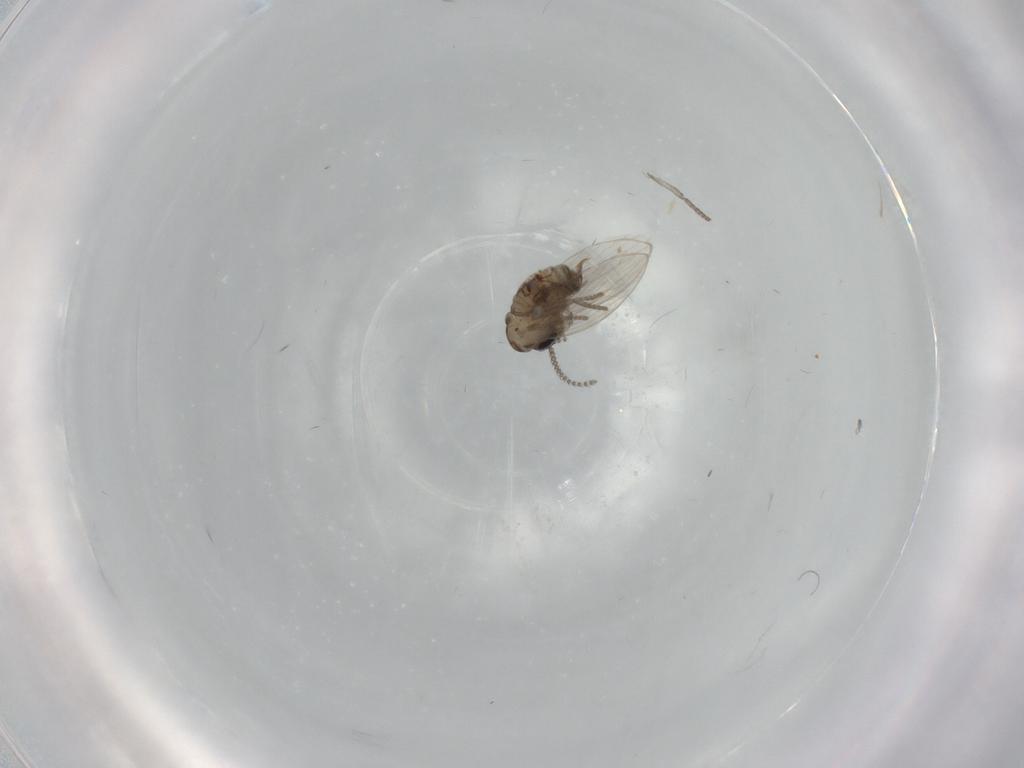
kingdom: Animalia
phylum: Arthropoda
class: Insecta
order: Diptera
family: Psychodidae
